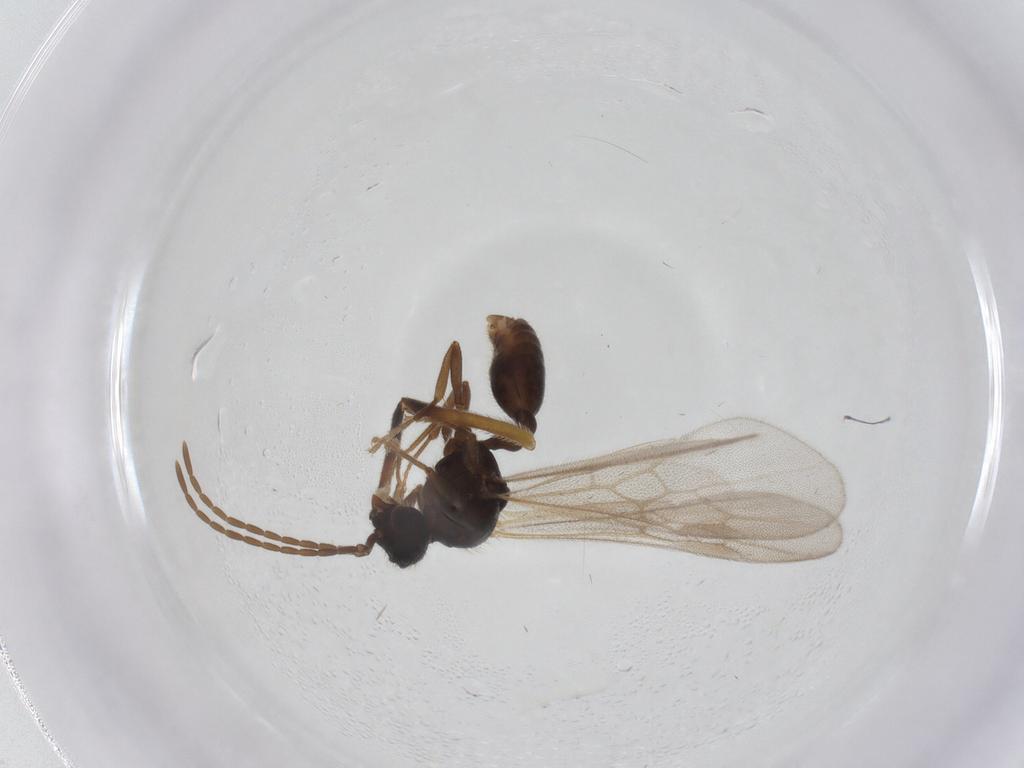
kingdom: Animalia
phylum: Arthropoda
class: Insecta
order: Hymenoptera
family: Formicidae
